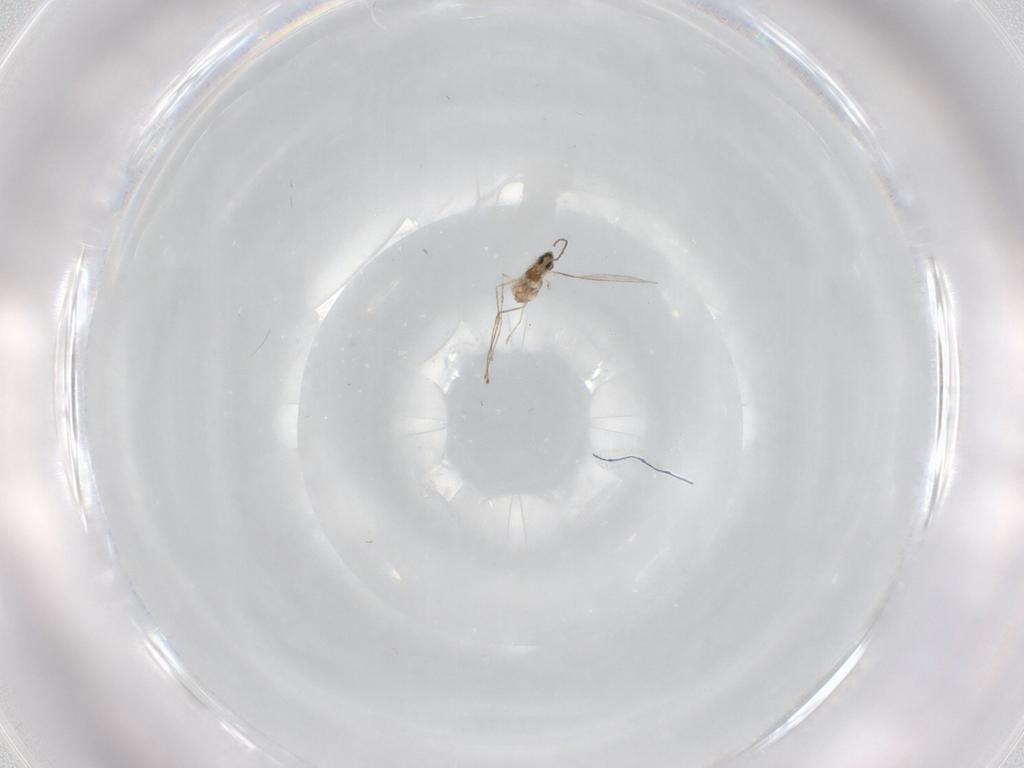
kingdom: Animalia
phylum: Arthropoda
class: Insecta
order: Diptera
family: Cecidomyiidae
